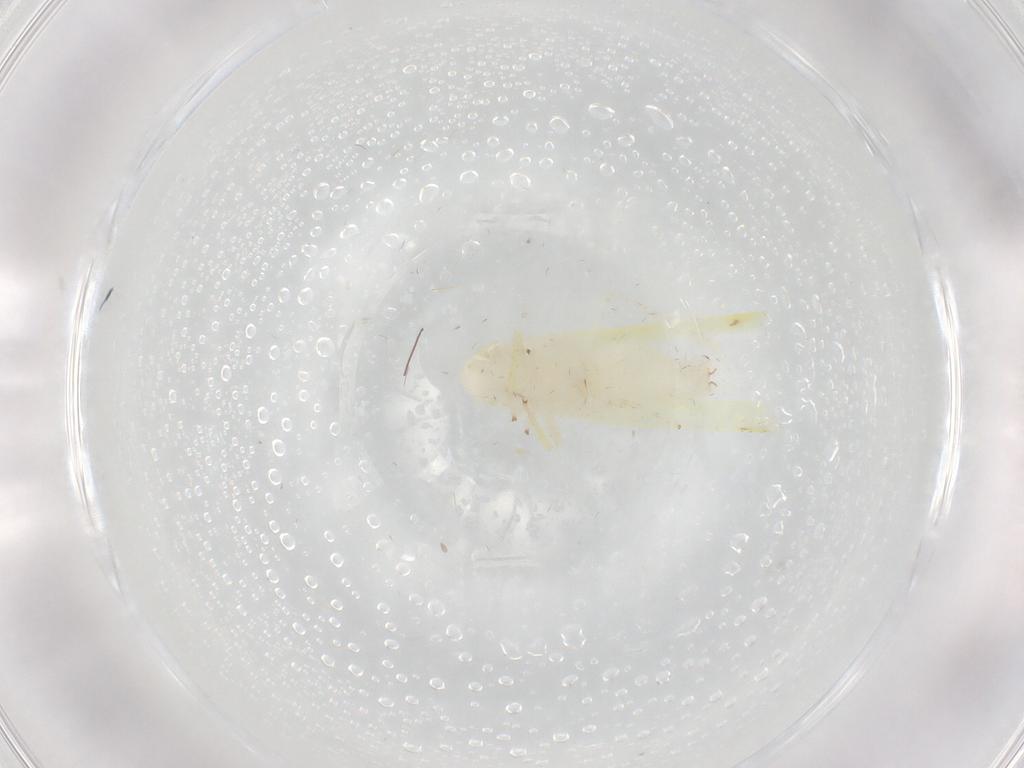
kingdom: Animalia
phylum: Arthropoda
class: Insecta
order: Hemiptera
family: Cicadellidae
